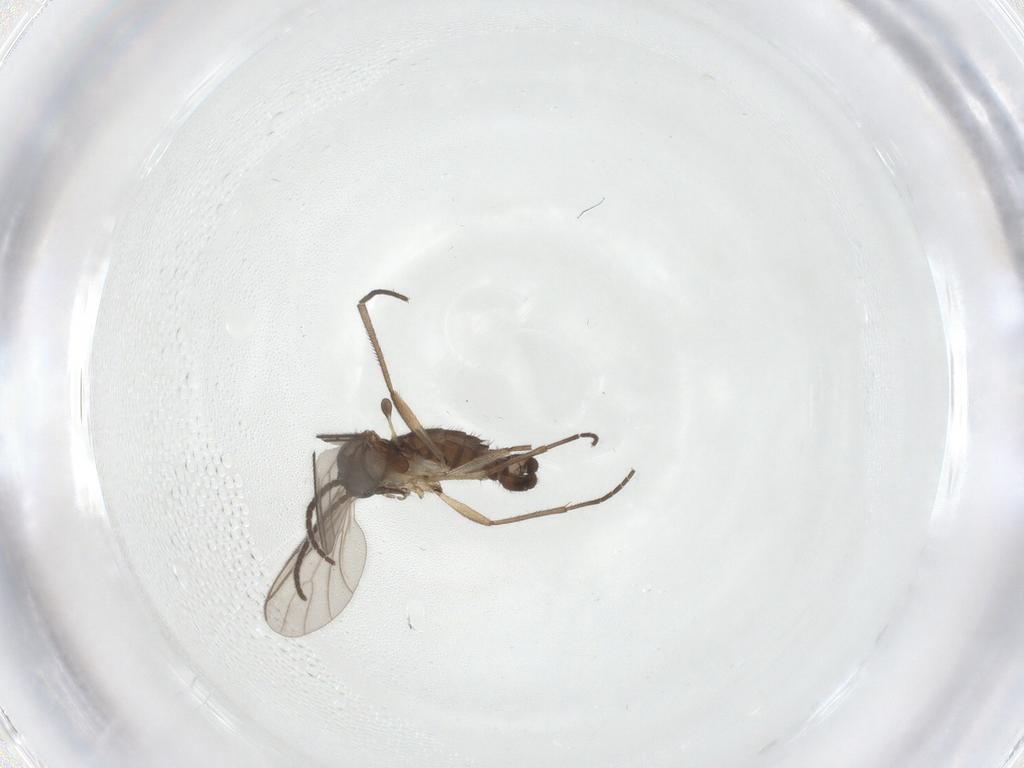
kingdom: Animalia
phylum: Arthropoda
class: Insecta
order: Diptera
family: Sciaridae
